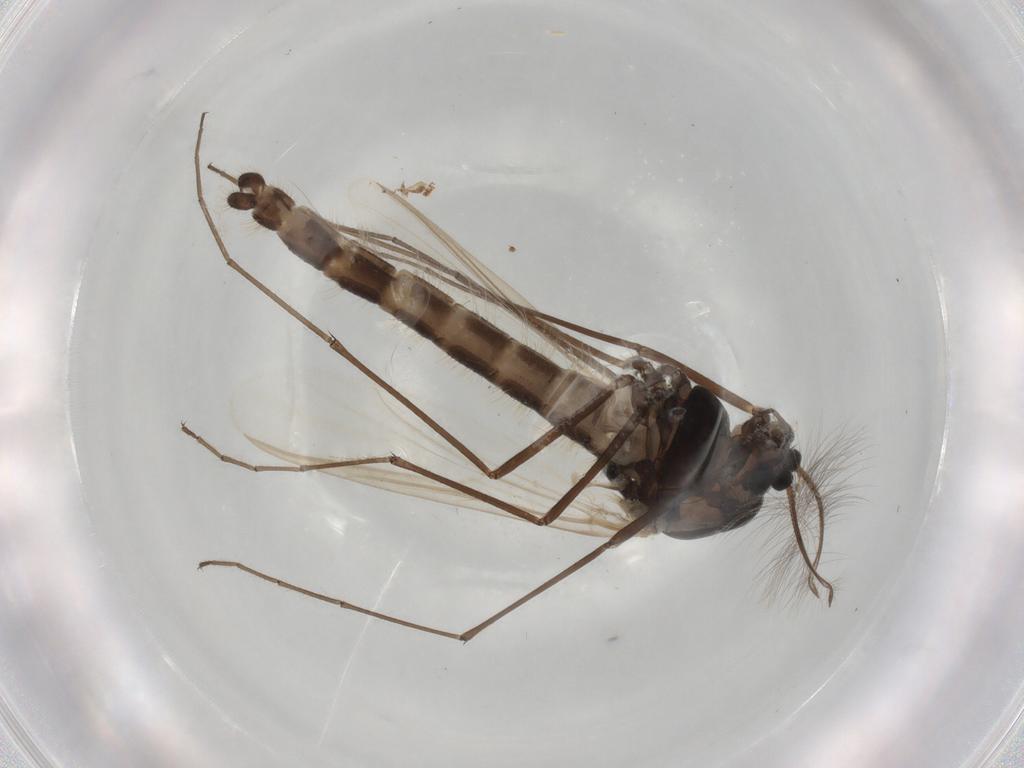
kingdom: Animalia
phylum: Arthropoda
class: Insecta
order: Diptera
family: Chironomidae
